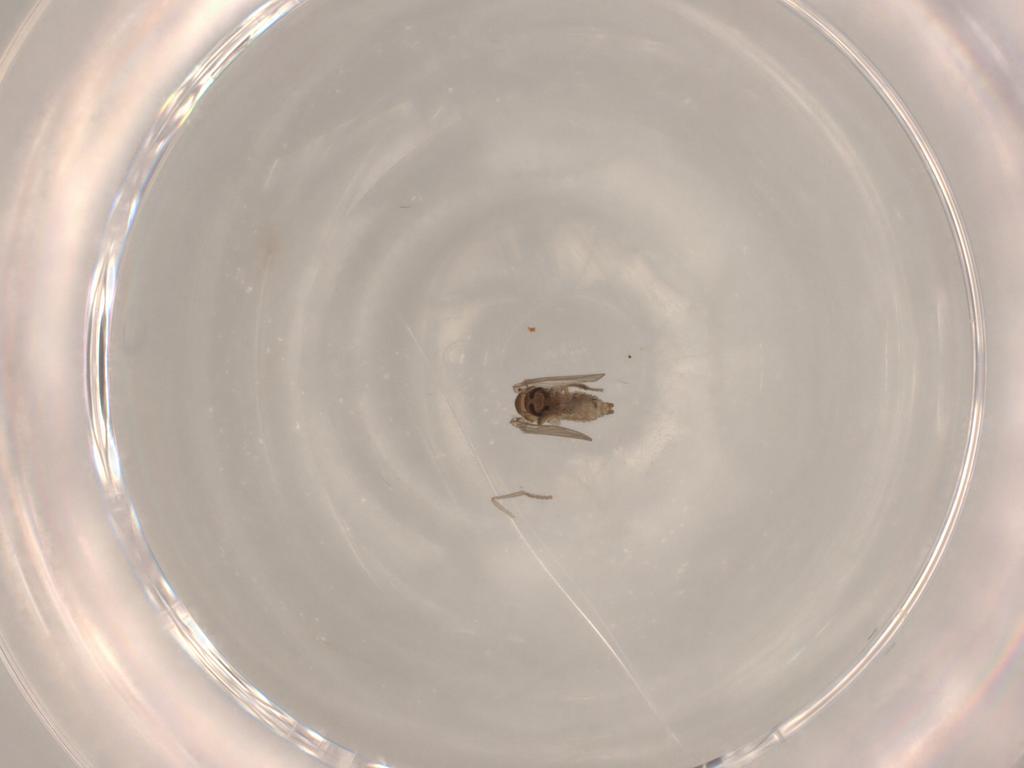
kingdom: Animalia
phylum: Arthropoda
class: Insecta
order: Diptera
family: Psychodidae
